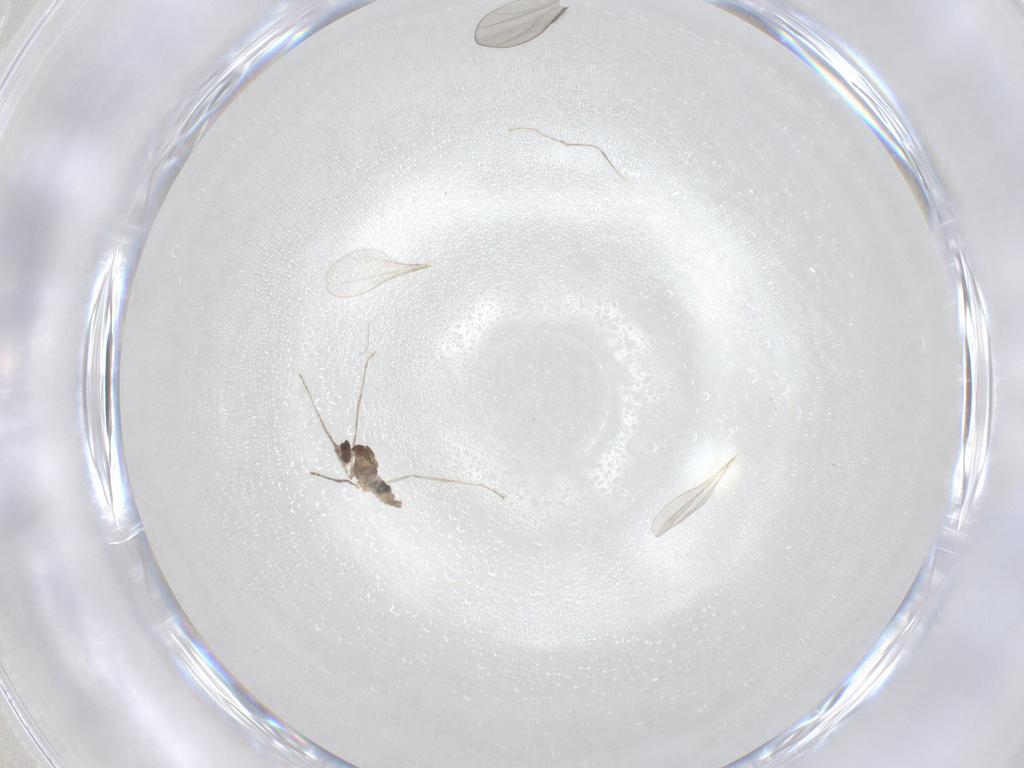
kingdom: Animalia
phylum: Arthropoda
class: Insecta
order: Diptera
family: Cecidomyiidae
